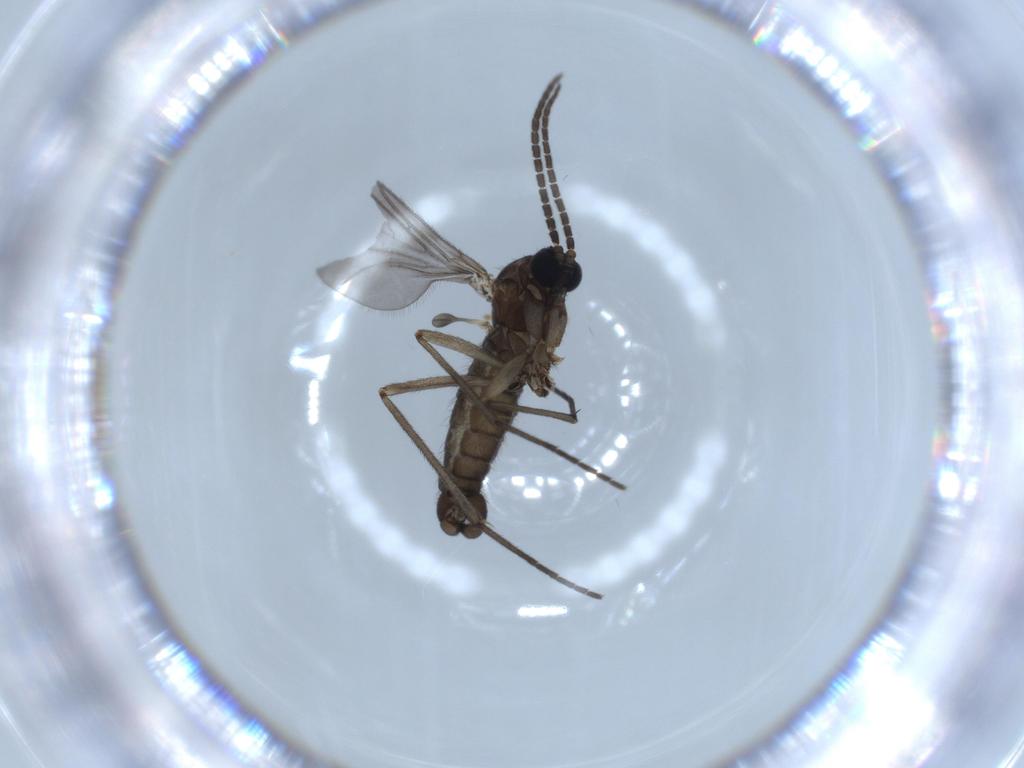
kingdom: Animalia
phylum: Arthropoda
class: Insecta
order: Diptera
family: Sciaridae
